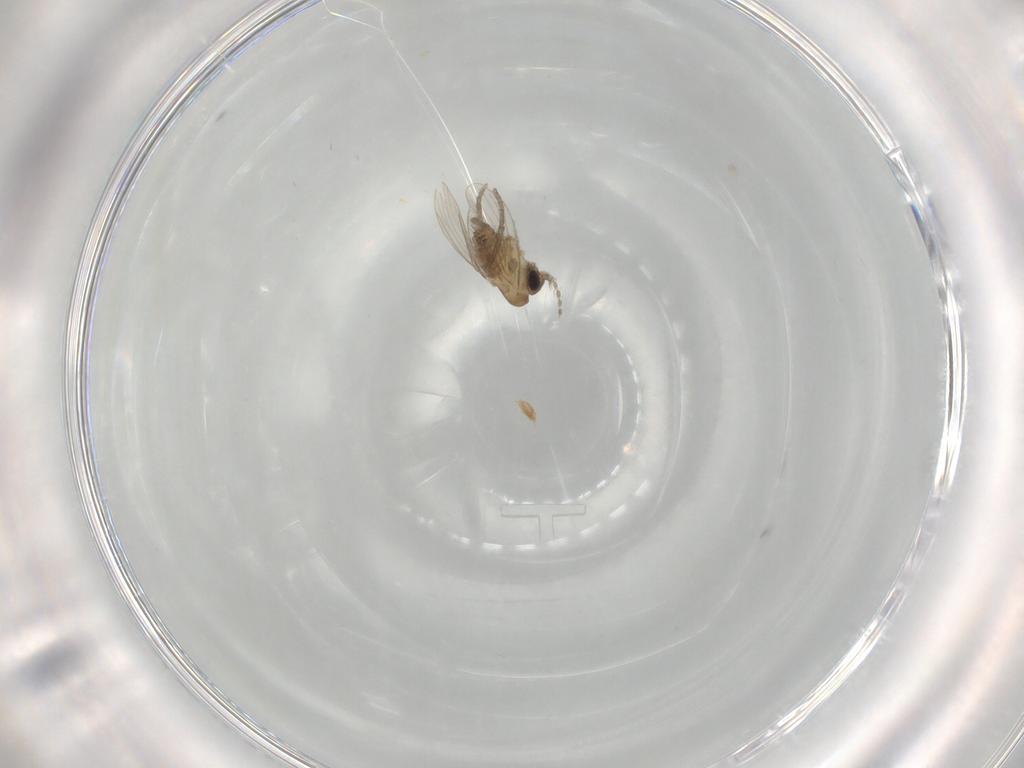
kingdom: Animalia
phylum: Arthropoda
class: Insecta
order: Diptera
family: Psychodidae
